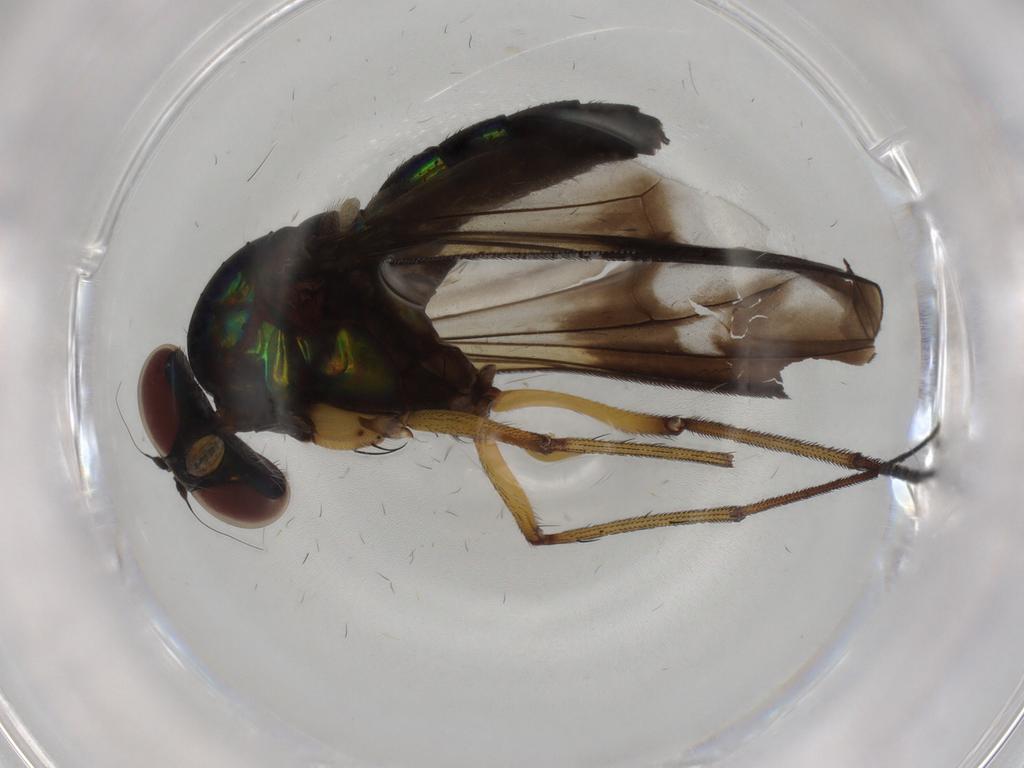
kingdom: Animalia
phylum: Arthropoda
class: Insecta
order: Diptera
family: Dolichopodidae
